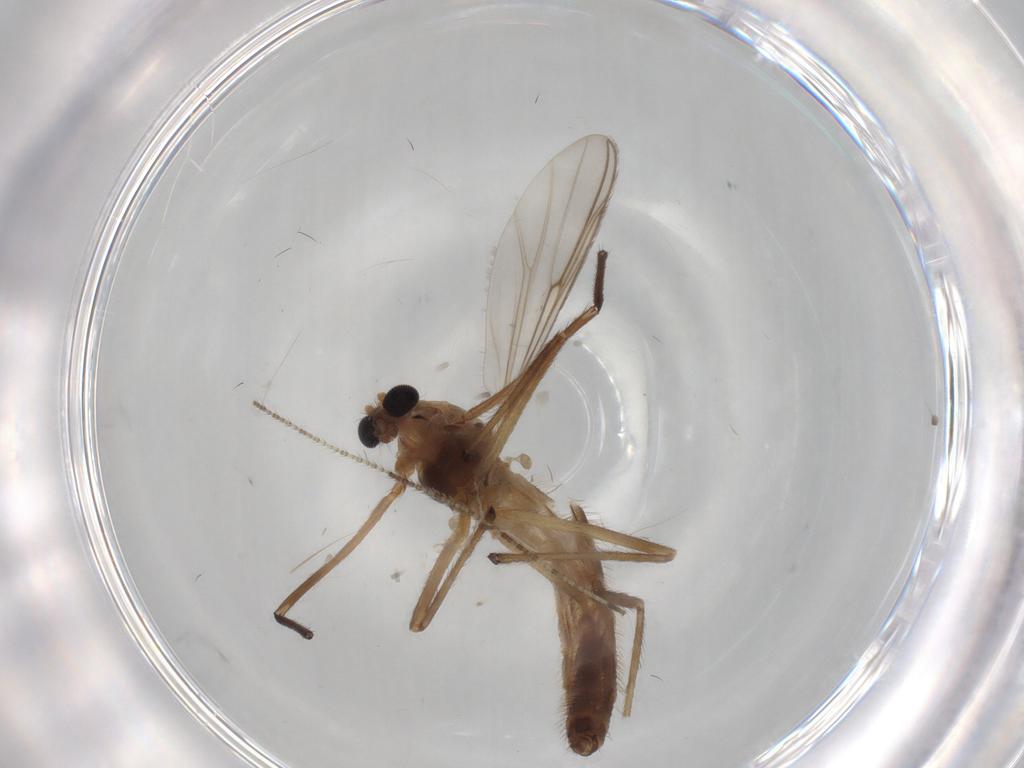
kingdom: Animalia
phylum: Arthropoda
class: Insecta
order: Diptera
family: Chironomidae
